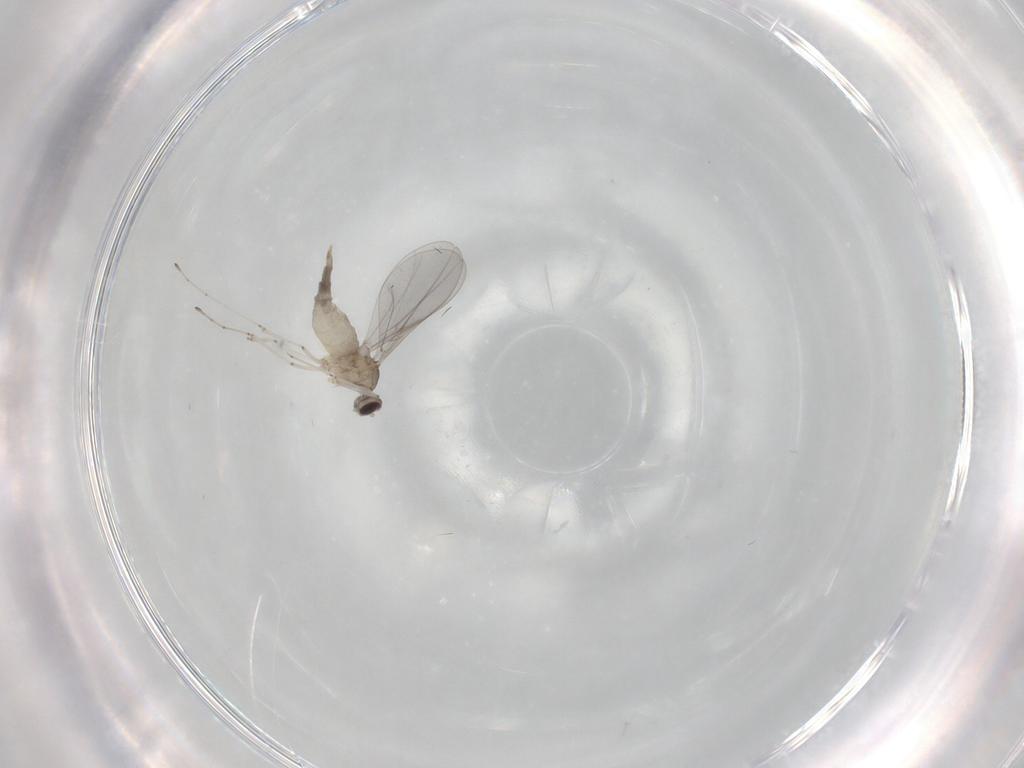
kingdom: Animalia
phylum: Arthropoda
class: Insecta
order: Diptera
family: Cecidomyiidae
